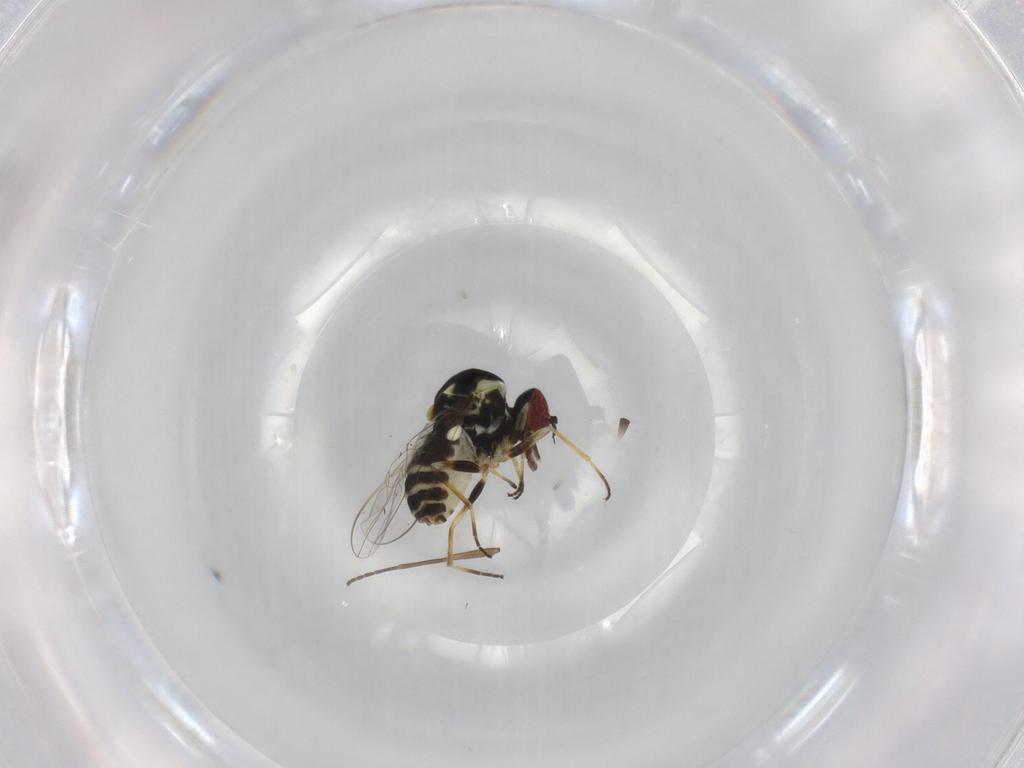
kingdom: Animalia
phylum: Arthropoda
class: Insecta
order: Diptera
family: Bombyliidae
